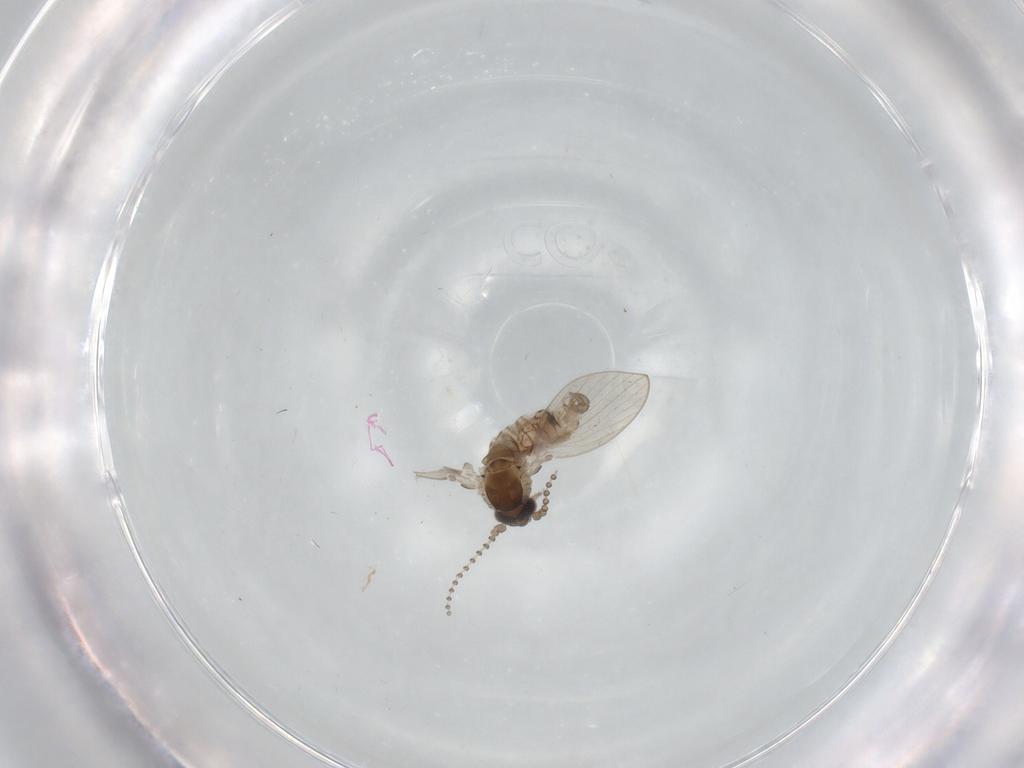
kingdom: Animalia
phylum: Arthropoda
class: Insecta
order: Diptera
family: Psychodidae
